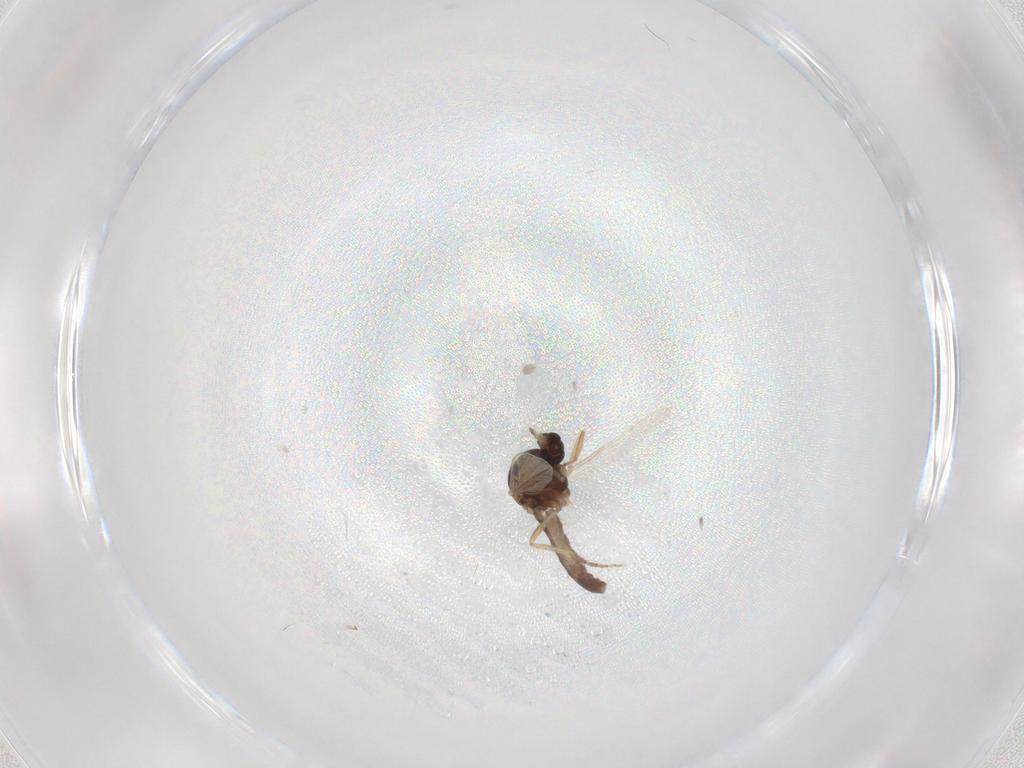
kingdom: Animalia
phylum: Arthropoda
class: Insecta
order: Diptera
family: Ceratopogonidae
